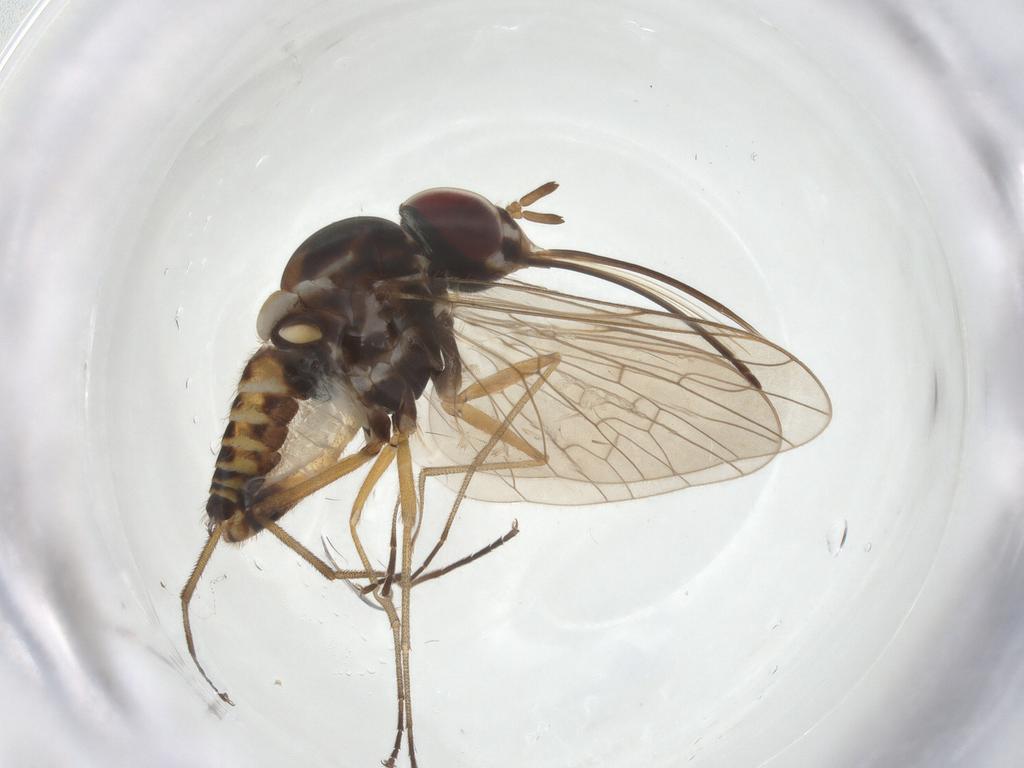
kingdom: Animalia
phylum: Arthropoda
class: Insecta
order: Diptera
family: Bombyliidae
